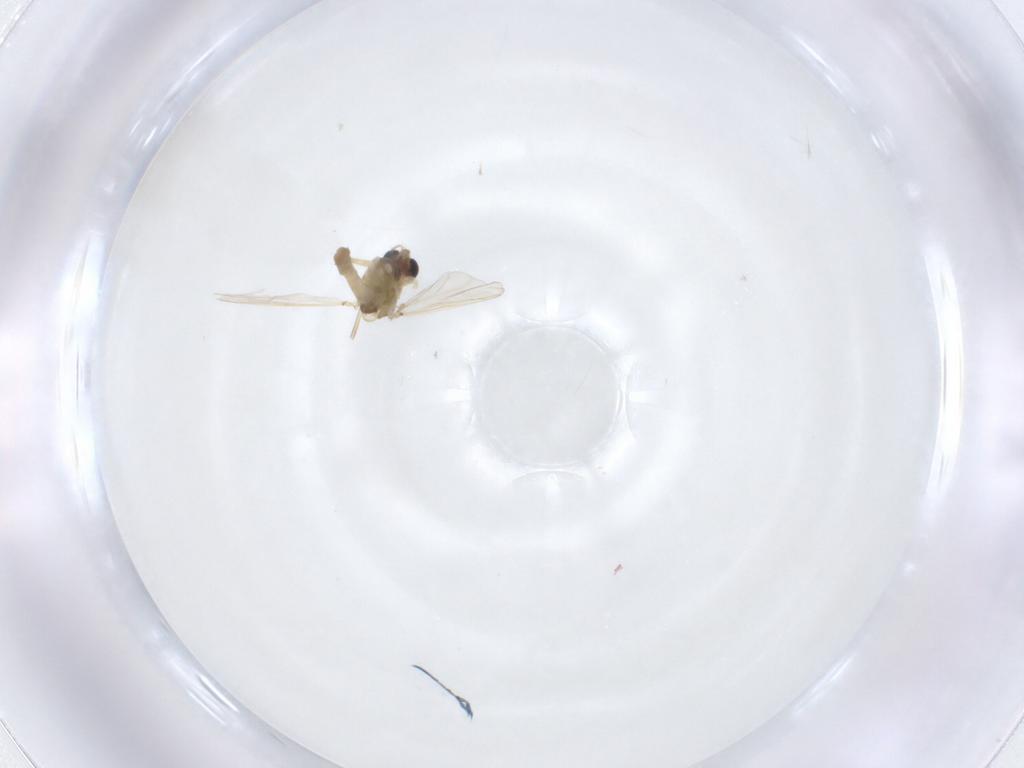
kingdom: Animalia
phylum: Arthropoda
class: Insecta
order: Diptera
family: Chironomidae
